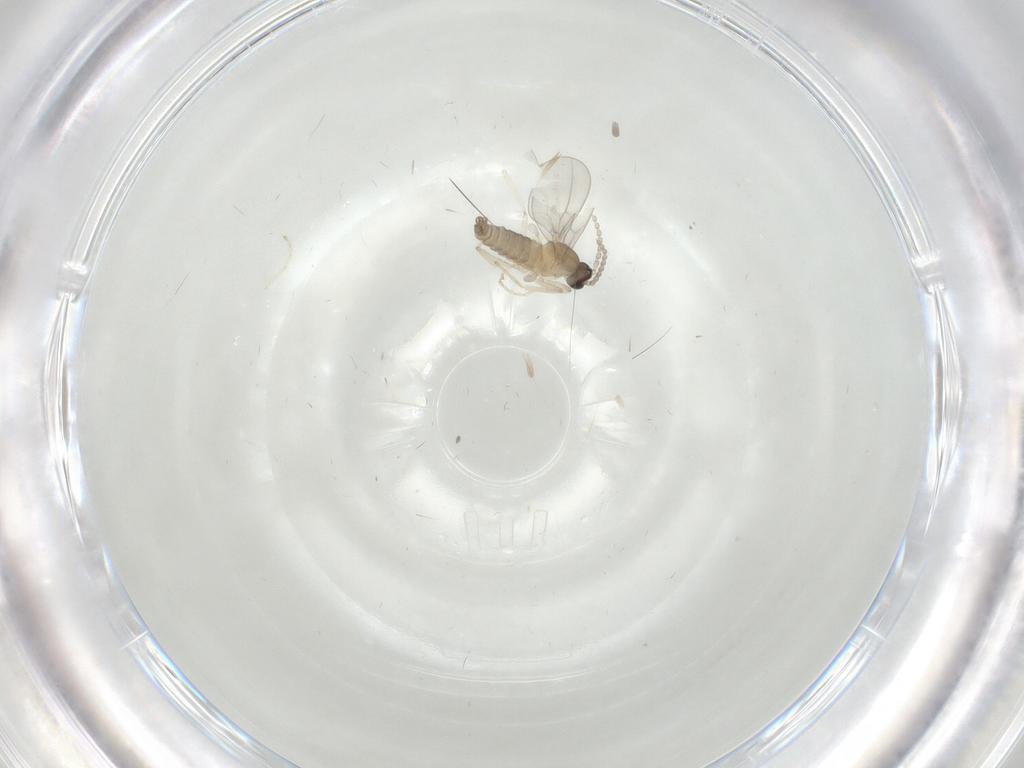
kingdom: Animalia
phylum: Arthropoda
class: Insecta
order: Diptera
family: Cecidomyiidae
